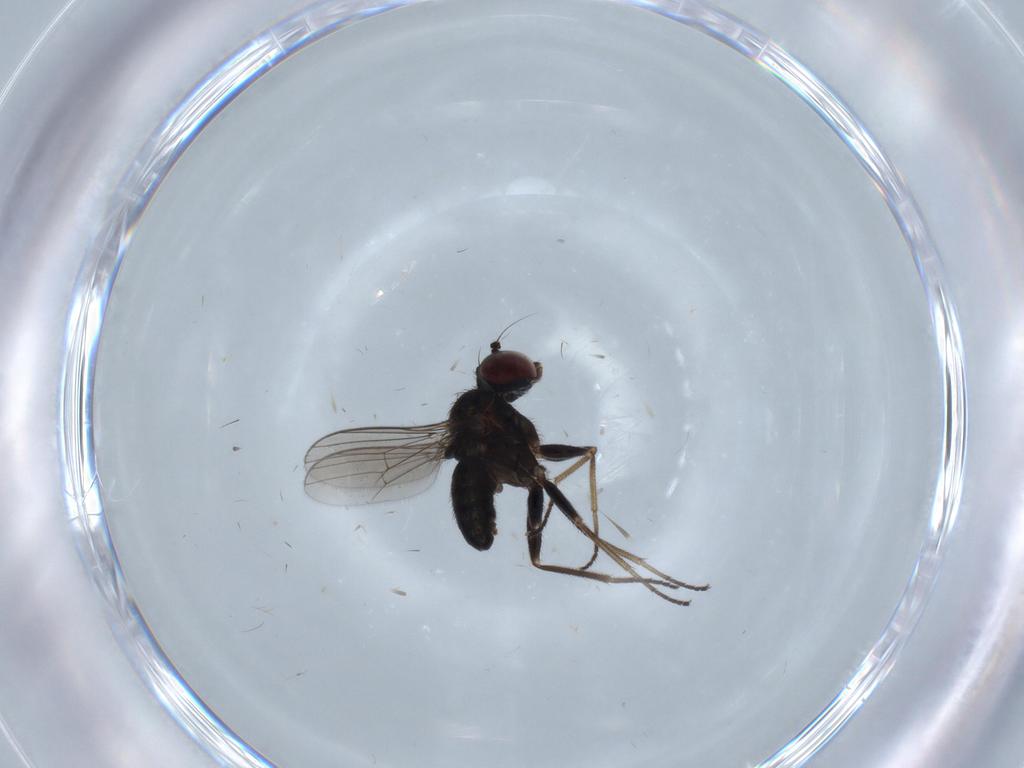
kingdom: Animalia
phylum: Arthropoda
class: Insecta
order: Diptera
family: Dolichopodidae
